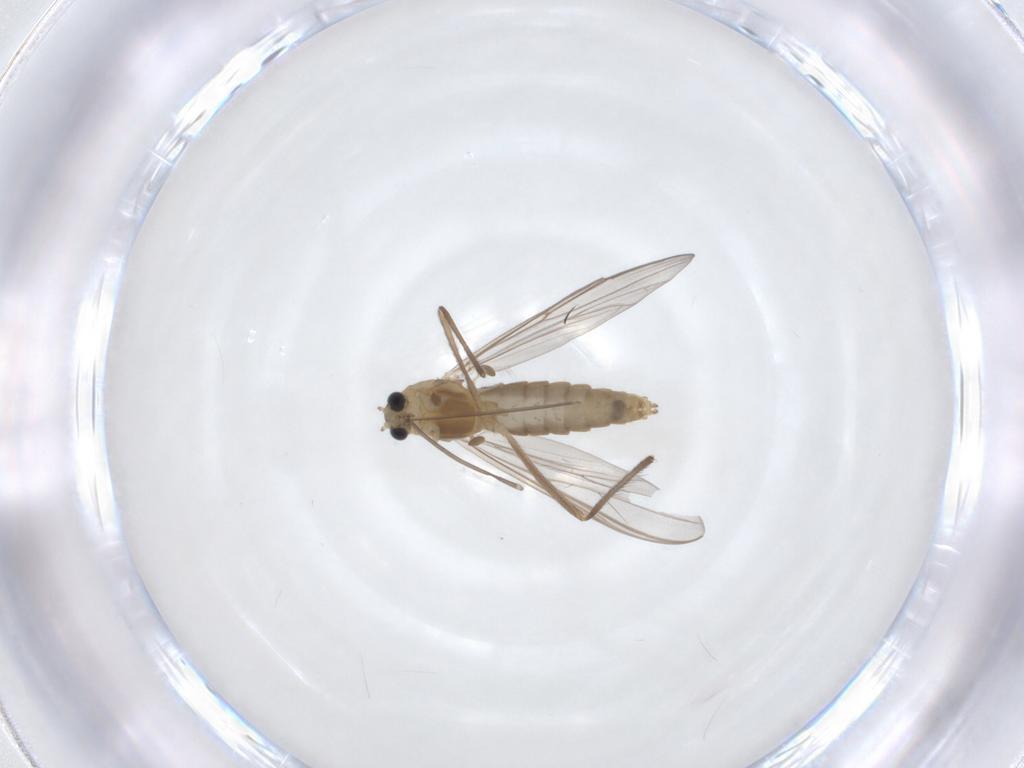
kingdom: Animalia
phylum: Arthropoda
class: Insecta
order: Diptera
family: Chironomidae
